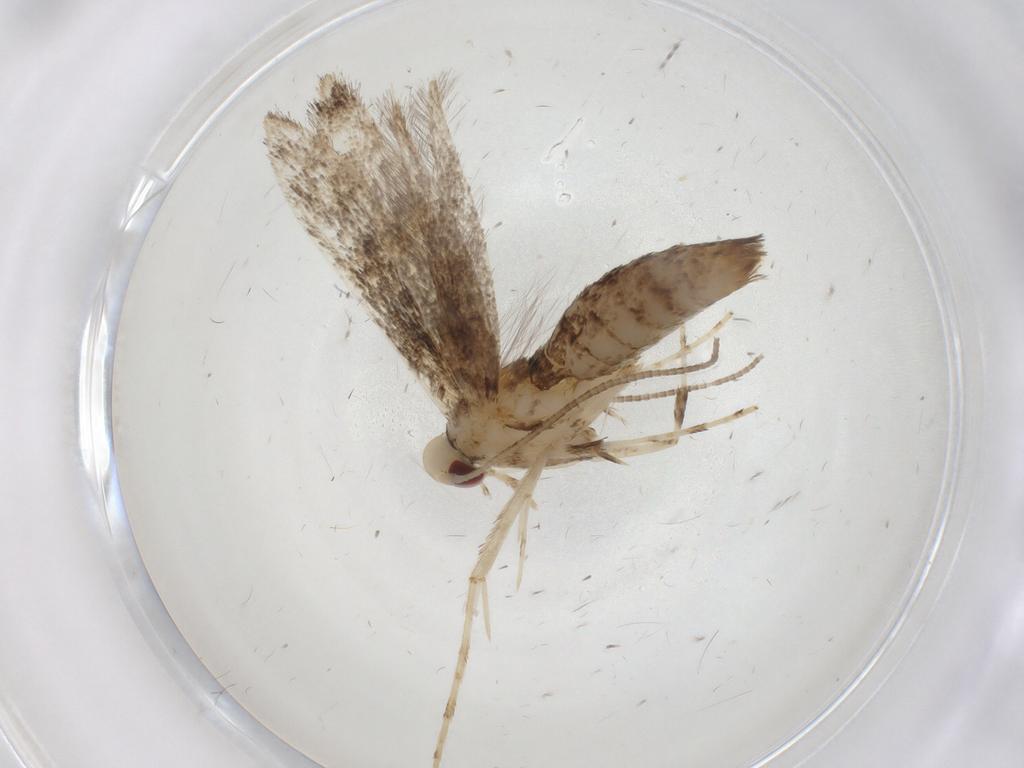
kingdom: Animalia
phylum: Arthropoda
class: Insecta
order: Lepidoptera
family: Gracillariidae
